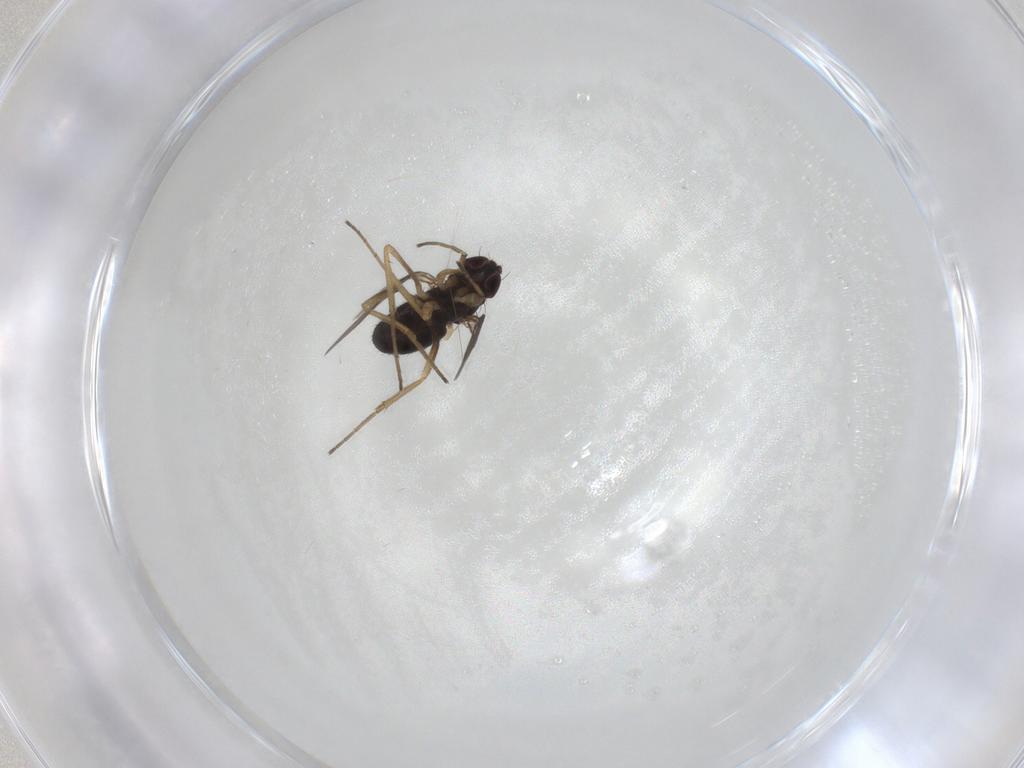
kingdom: Animalia
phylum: Arthropoda
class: Insecta
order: Diptera
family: Dolichopodidae
